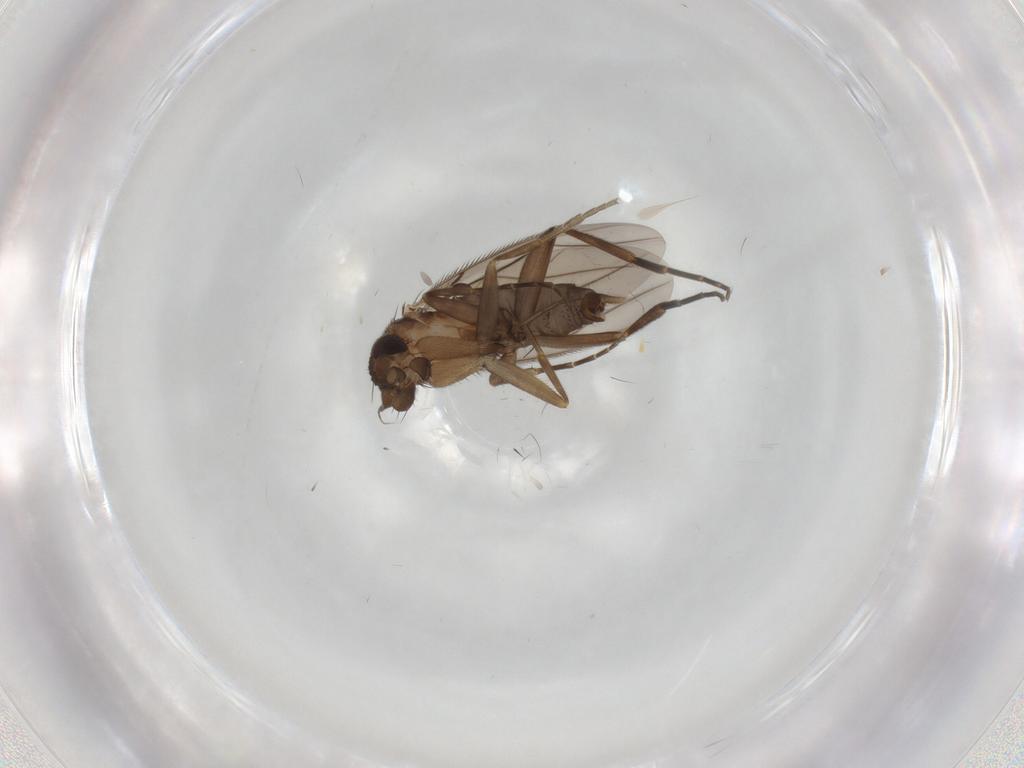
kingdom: Animalia
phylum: Arthropoda
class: Insecta
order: Diptera
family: Phoridae
